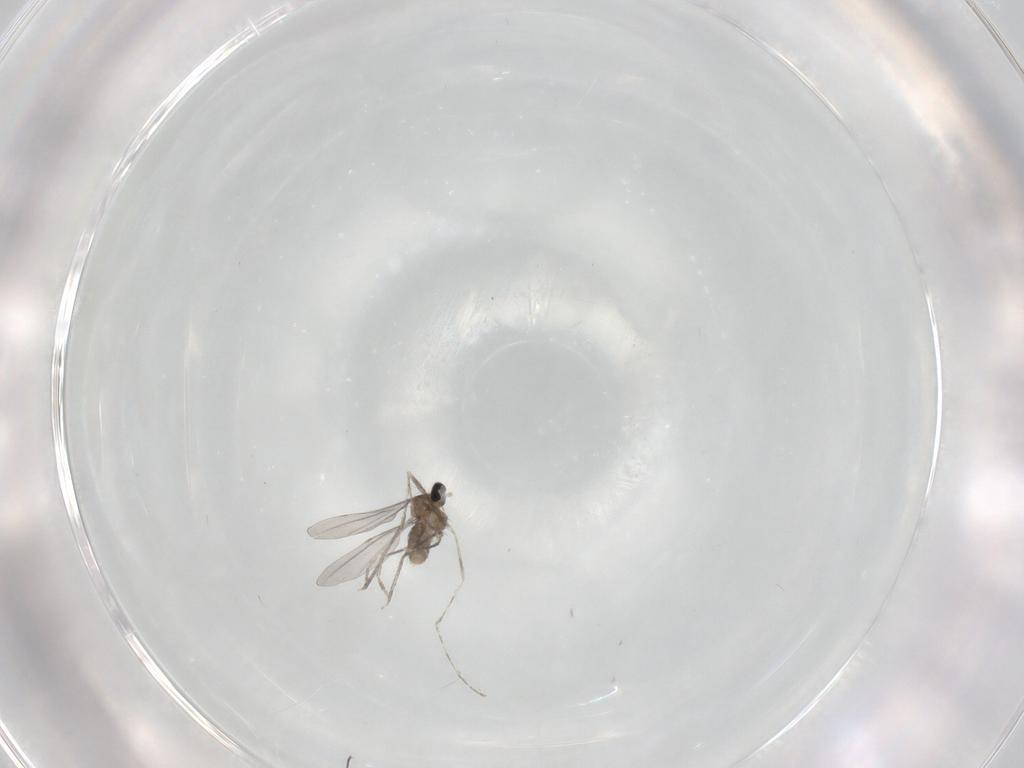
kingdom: Animalia
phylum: Arthropoda
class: Insecta
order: Diptera
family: Cecidomyiidae
